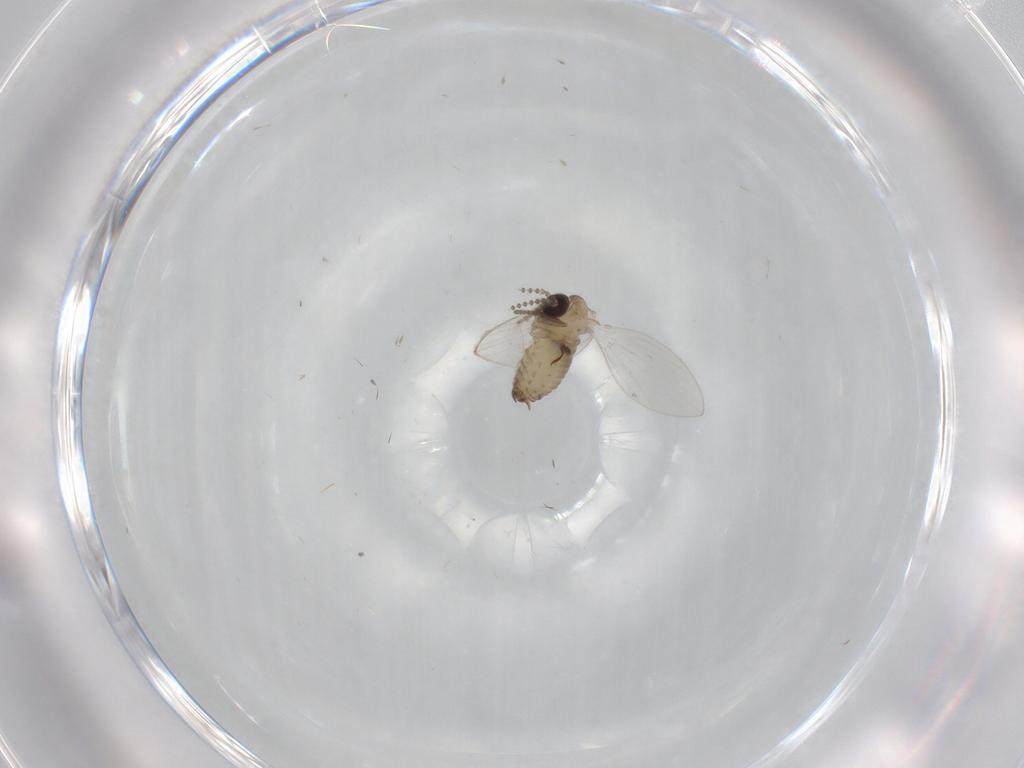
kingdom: Animalia
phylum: Arthropoda
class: Insecta
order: Diptera
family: Psychodidae
